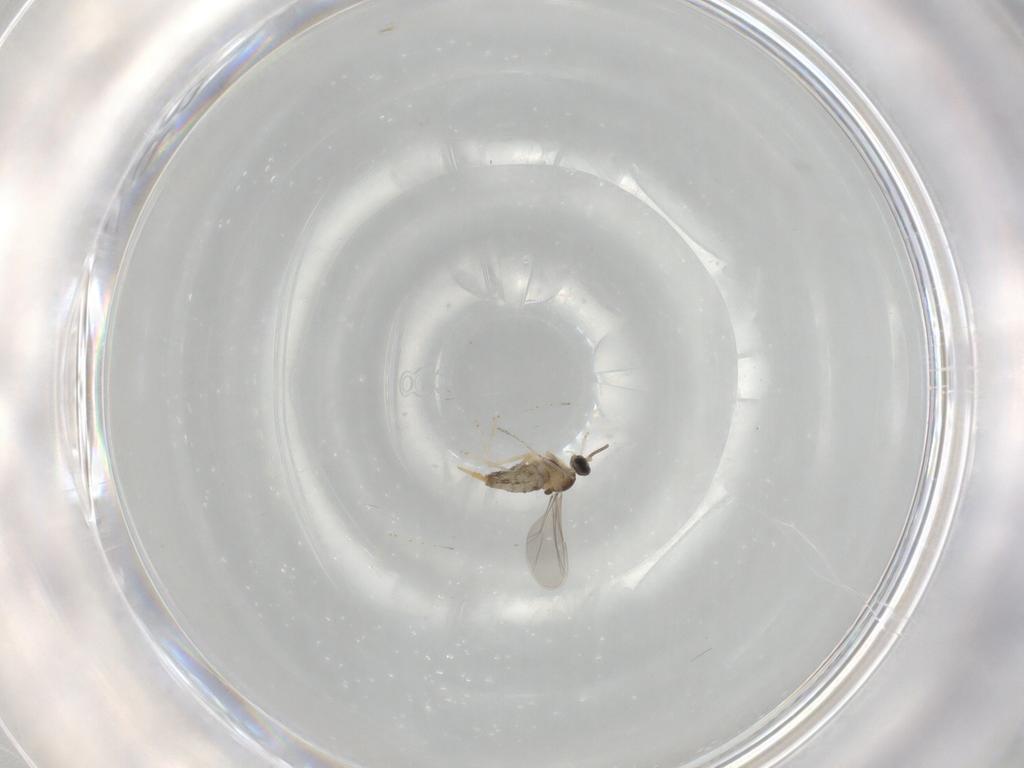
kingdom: Animalia
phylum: Arthropoda
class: Insecta
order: Diptera
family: Cecidomyiidae
